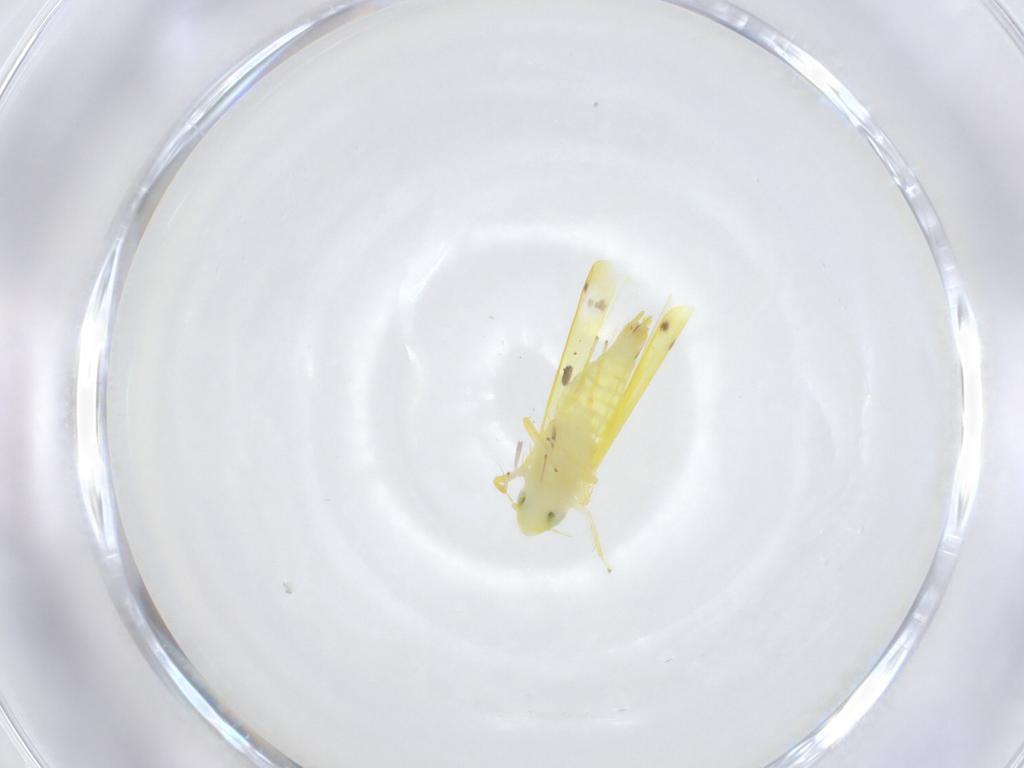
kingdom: Animalia
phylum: Arthropoda
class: Insecta
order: Hemiptera
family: Cicadellidae
